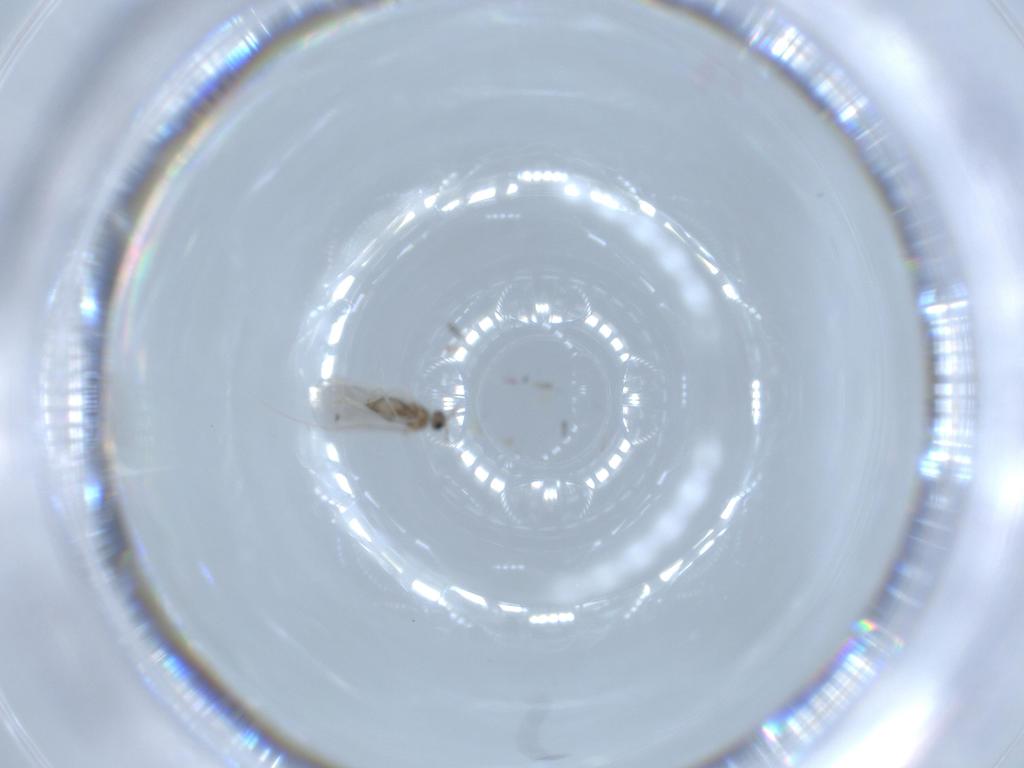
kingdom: Animalia
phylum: Arthropoda
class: Insecta
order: Diptera
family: Cecidomyiidae
